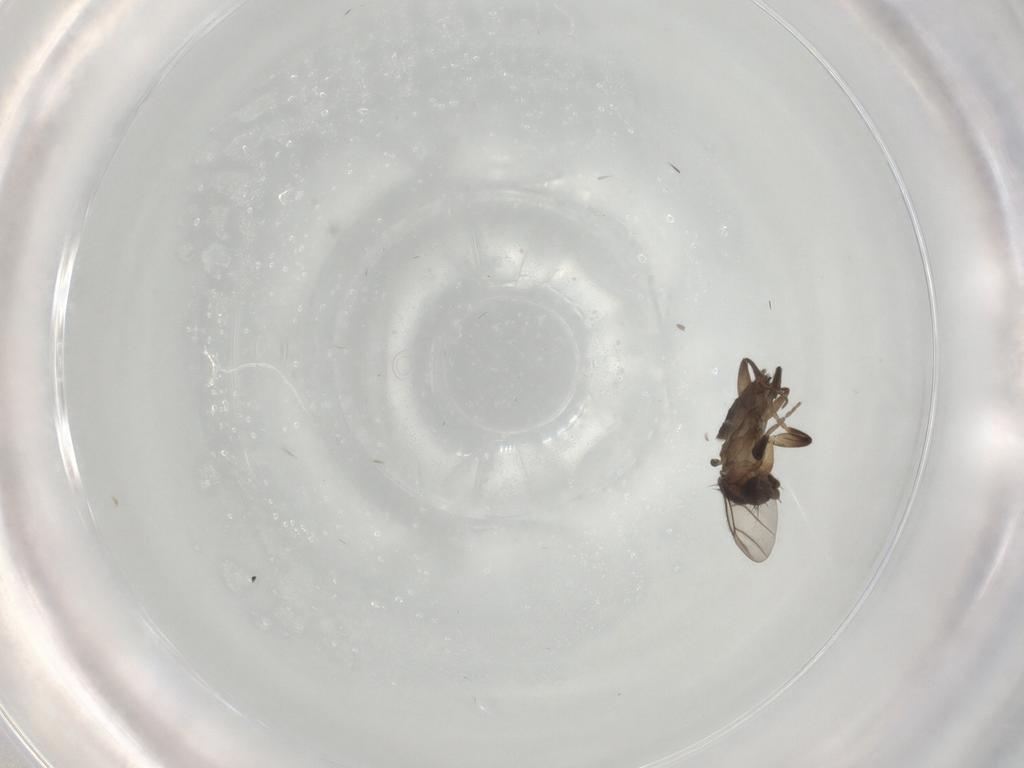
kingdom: Animalia
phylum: Arthropoda
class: Insecta
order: Diptera
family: Phoridae
